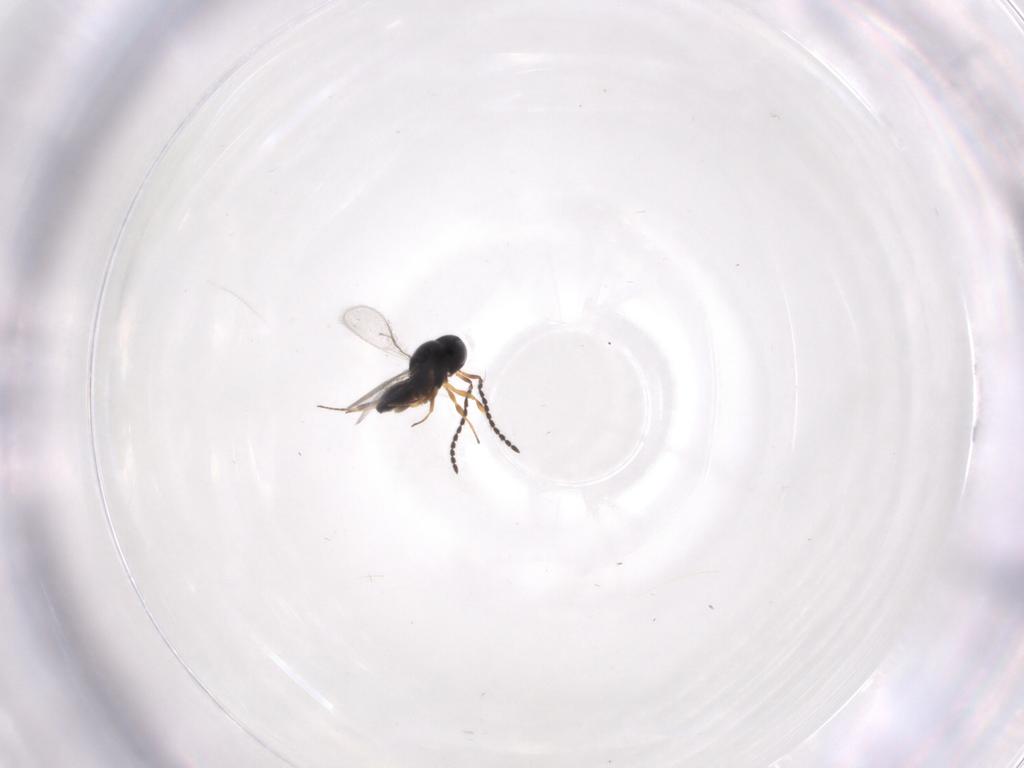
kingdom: Animalia
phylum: Arthropoda
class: Insecta
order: Hymenoptera
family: Scelionidae
